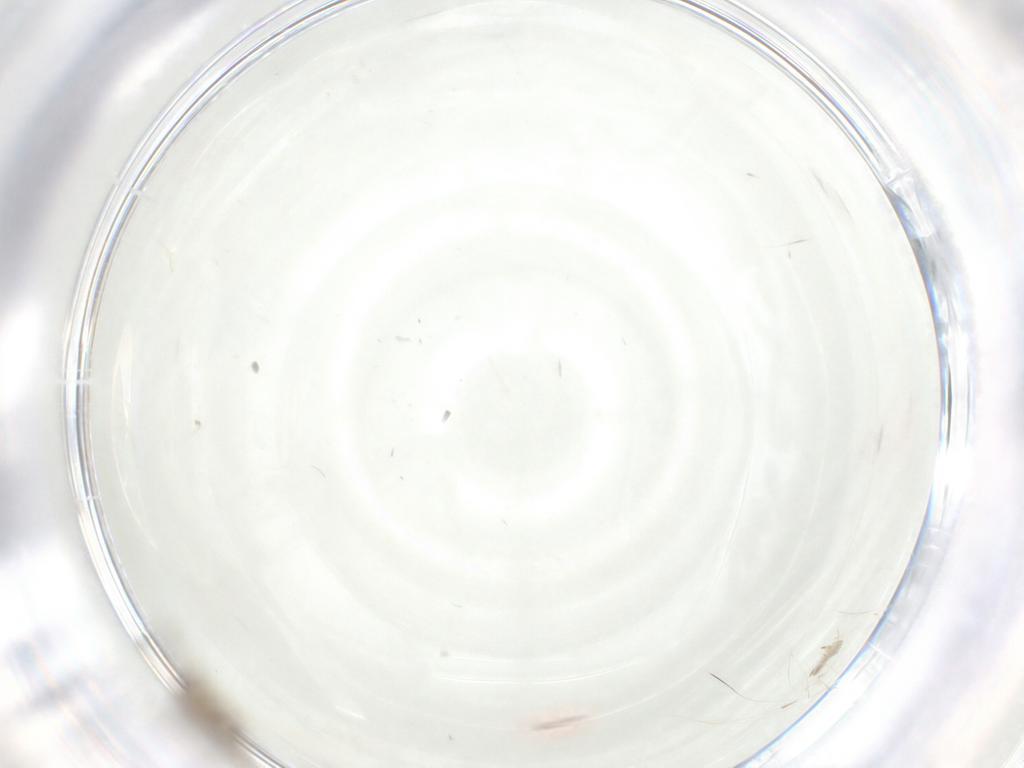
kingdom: Animalia
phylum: Arthropoda
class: Insecta
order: Hymenoptera
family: Mymaridae
